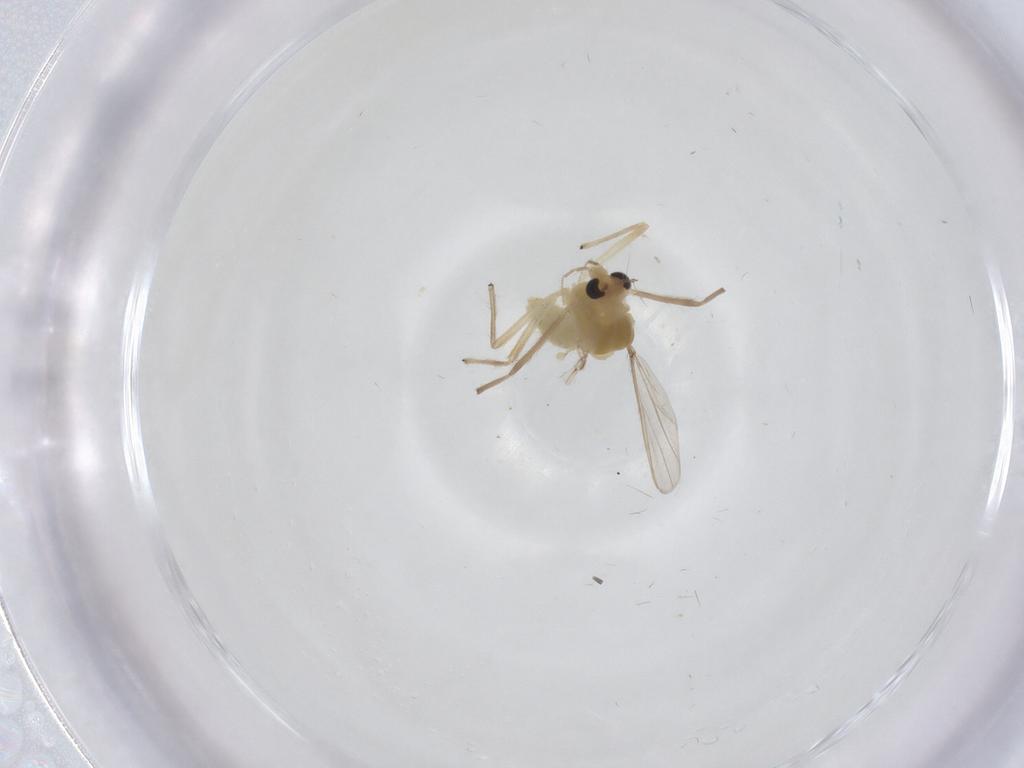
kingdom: Animalia
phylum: Arthropoda
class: Insecta
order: Diptera
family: Chironomidae
